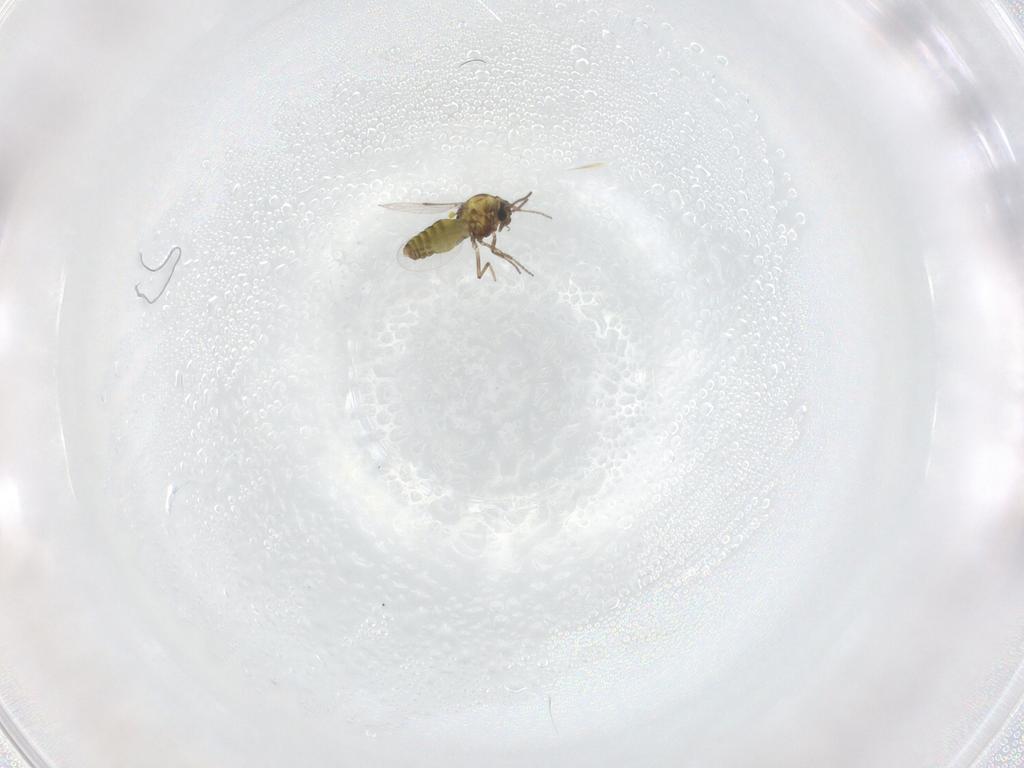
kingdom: Animalia
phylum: Arthropoda
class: Insecta
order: Diptera
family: Ceratopogonidae
